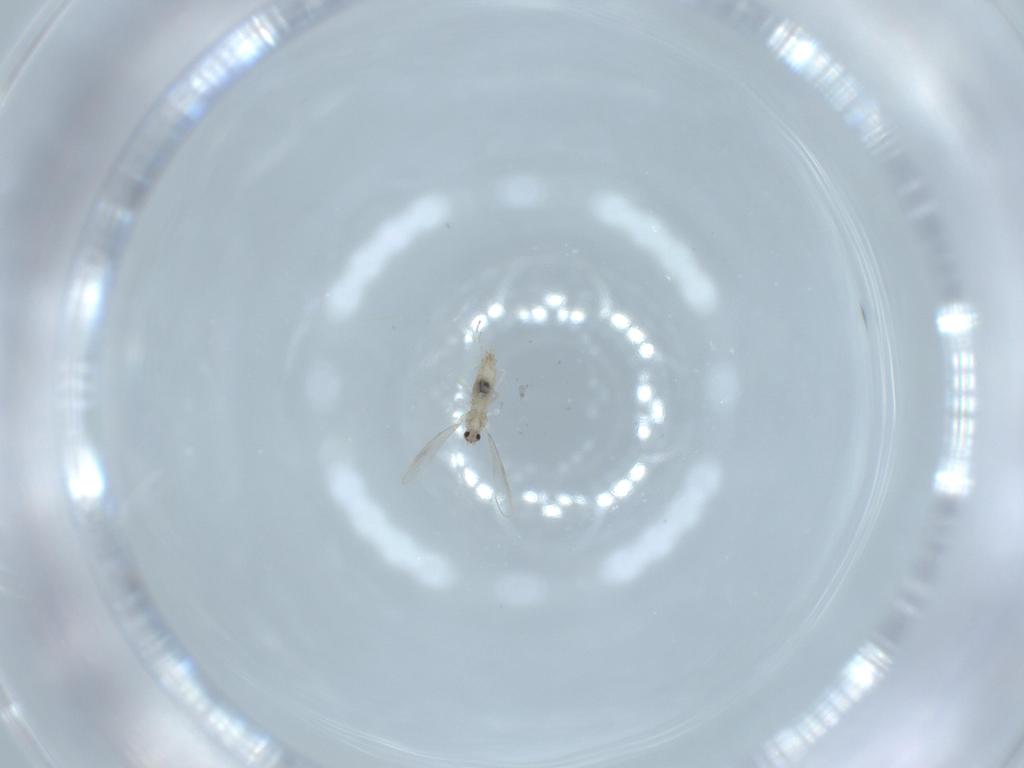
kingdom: Animalia
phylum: Arthropoda
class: Insecta
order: Diptera
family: Cecidomyiidae
